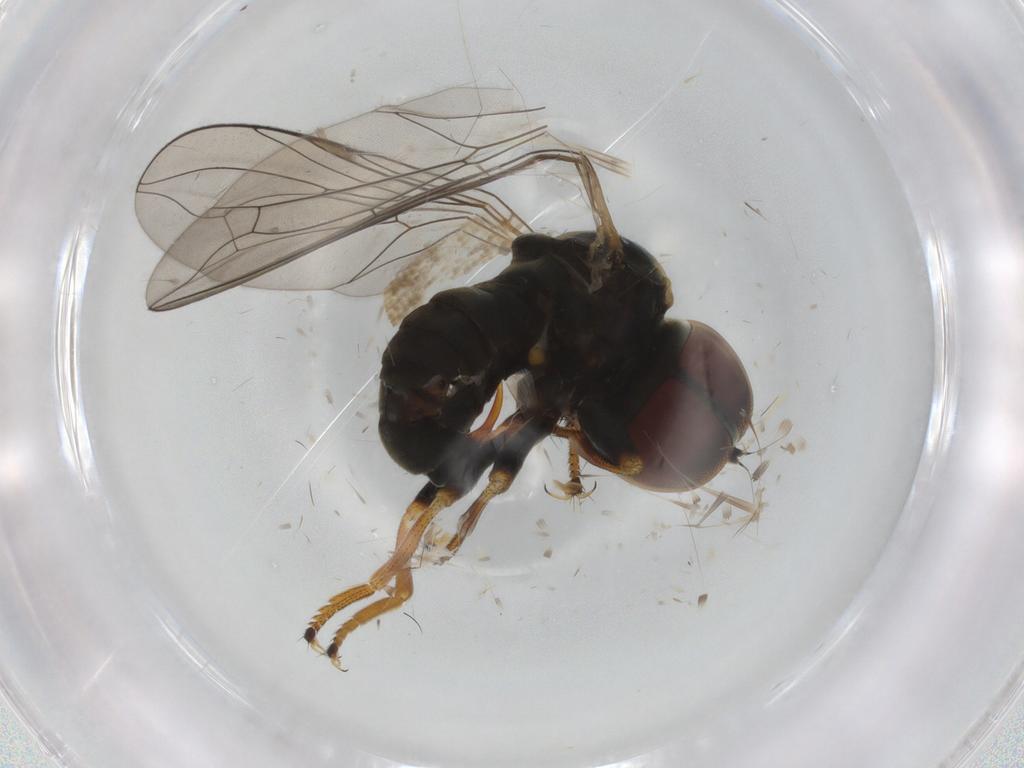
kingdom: Animalia
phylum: Arthropoda
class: Insecta
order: Diptera
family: Pipunculidae
